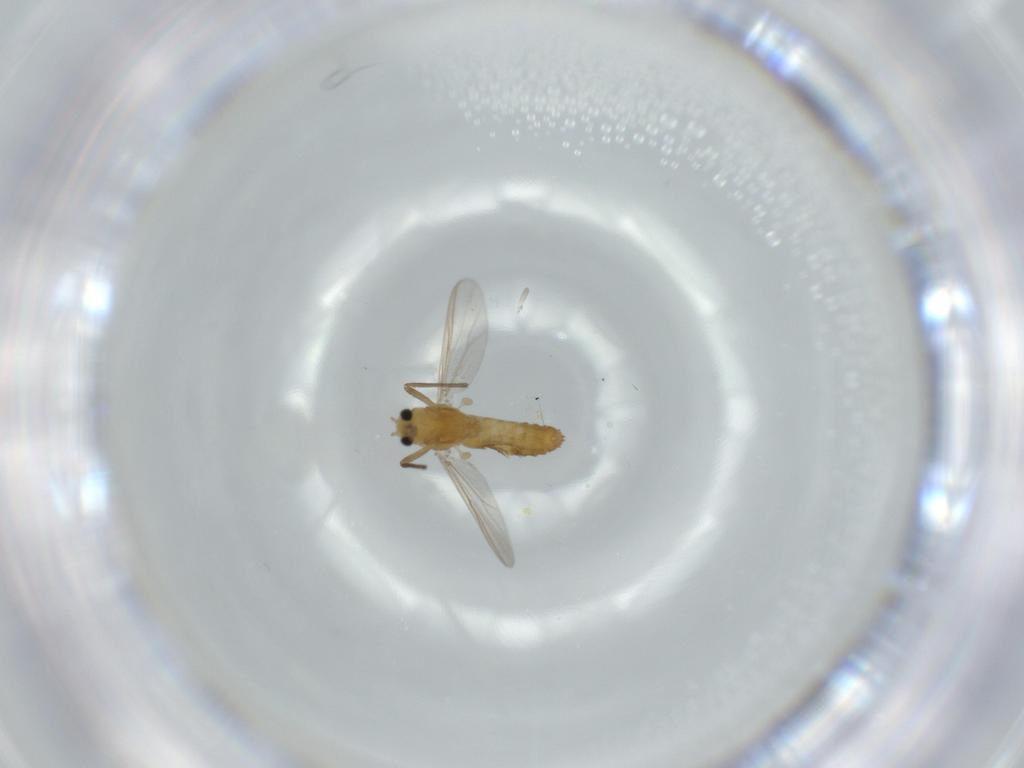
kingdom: Animalia
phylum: Arthropoda
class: Insecta
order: Diptera
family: Chironomidae
